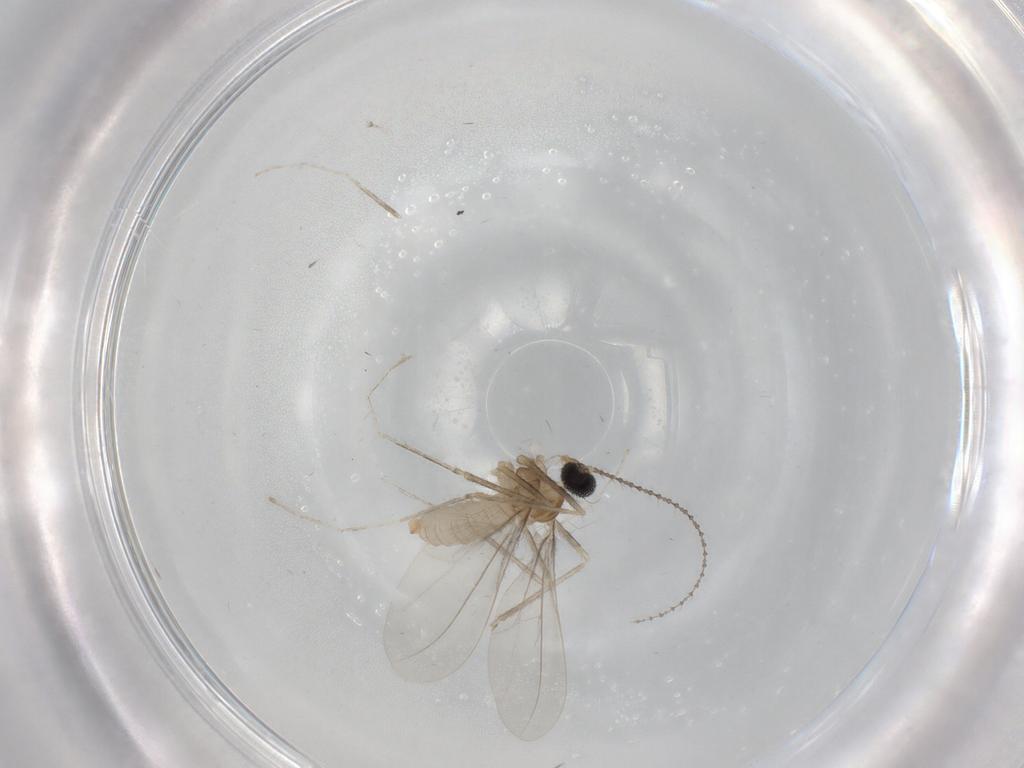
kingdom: Animalia
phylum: Arthropoda
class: Insecta
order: Diptera
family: Cecidomyiidae
